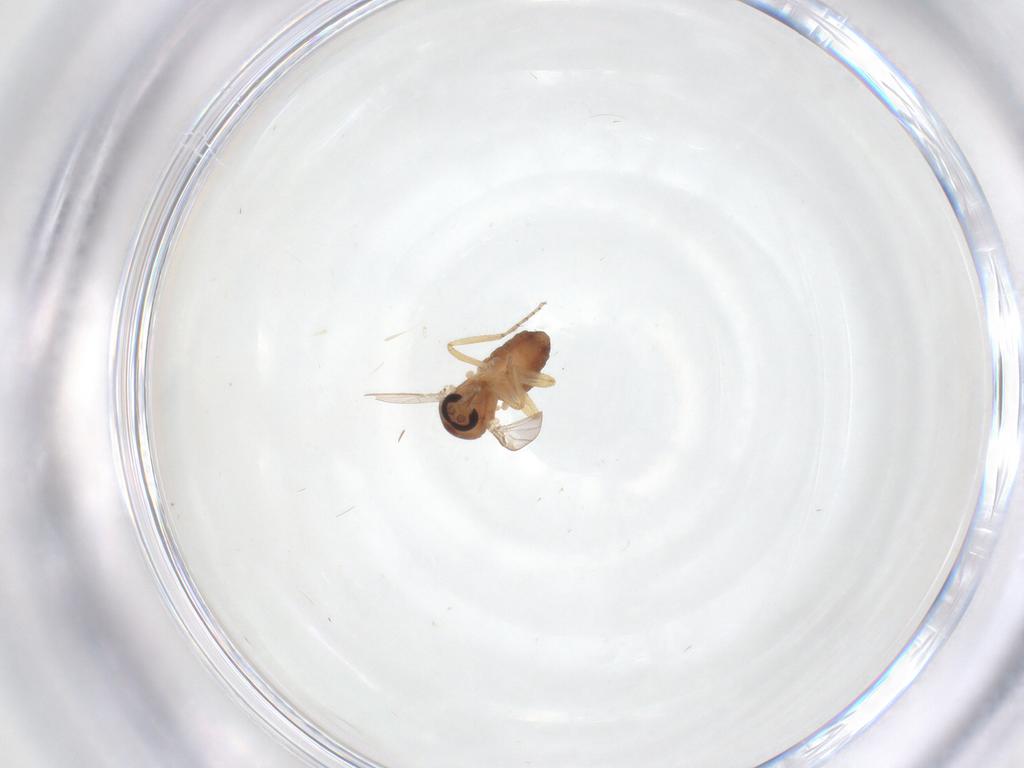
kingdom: Animalia
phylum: Arthropoda
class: Insecta
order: Diptera
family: Ceratopogonidae
